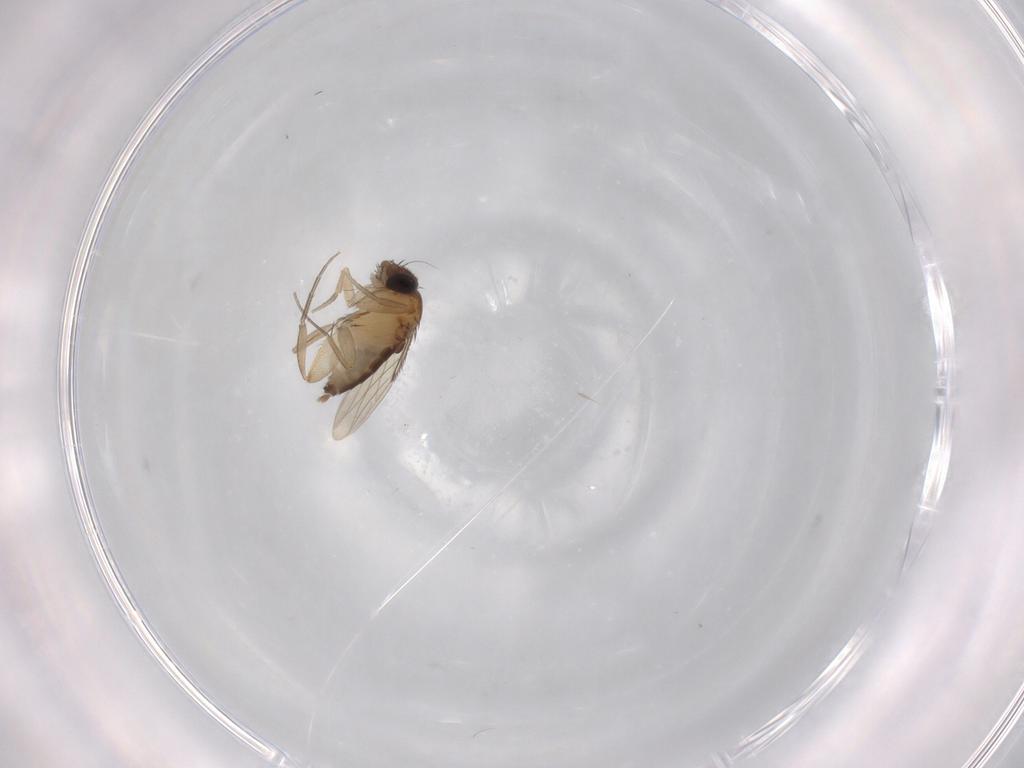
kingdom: Animalia
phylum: Arthropoda
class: Insecta
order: Diptera
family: Phoridae
